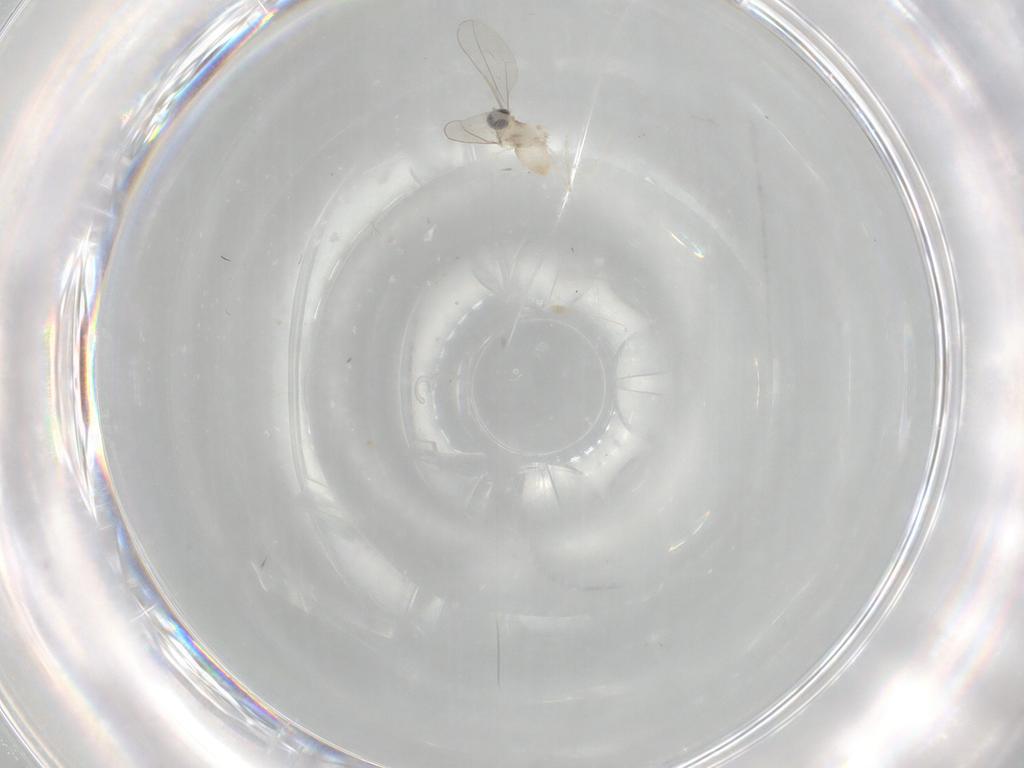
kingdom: Animalia
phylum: Arthropoda
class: Insecta
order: Diptera
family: Cecidomyiidae
